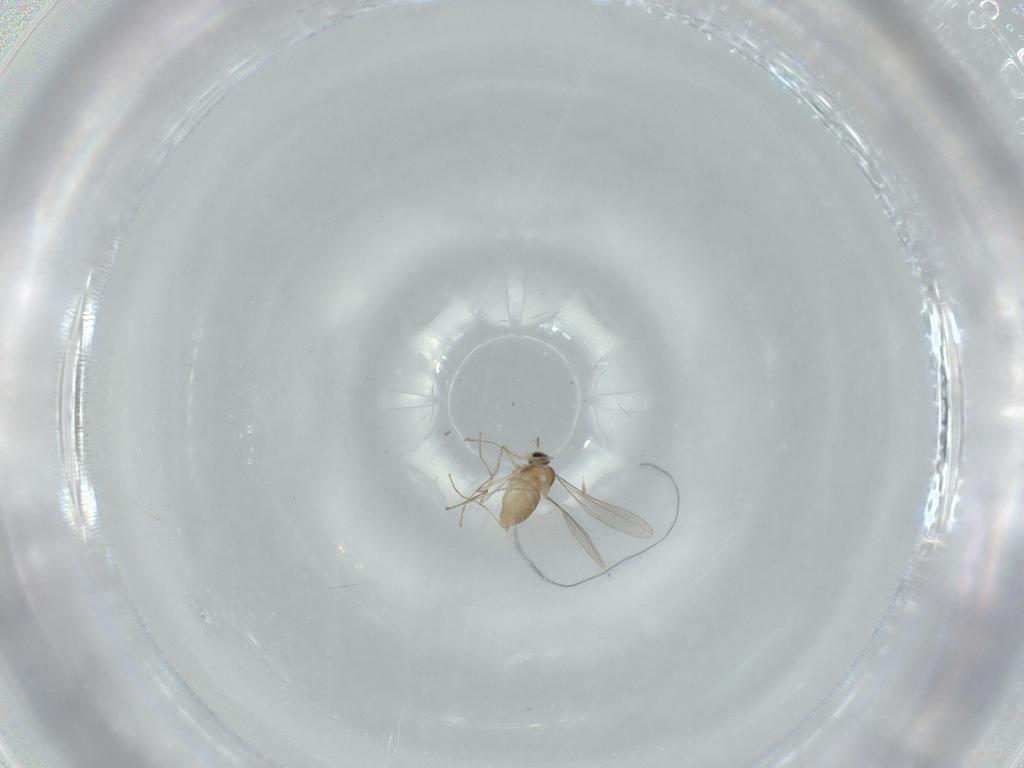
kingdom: Animalia
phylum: Arthropoda
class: Insecta
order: Diptera
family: Cecidomyiidae
